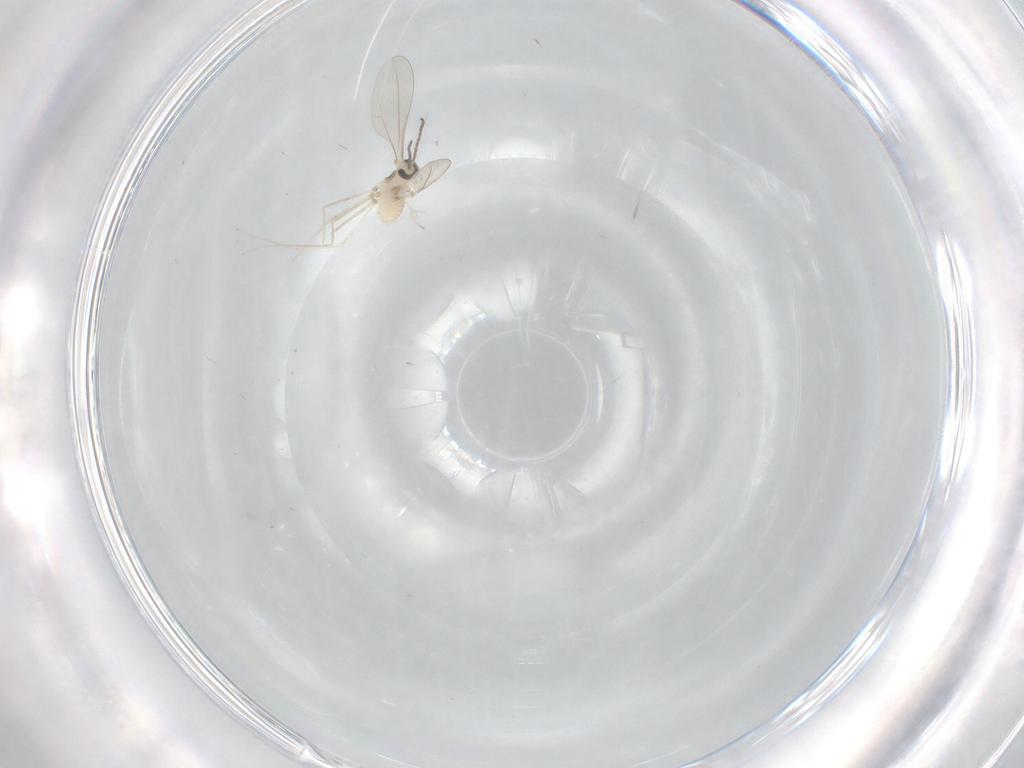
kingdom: Animalia
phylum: Arthropoda
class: Insecta
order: Diptera
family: Cecidomyiidae
